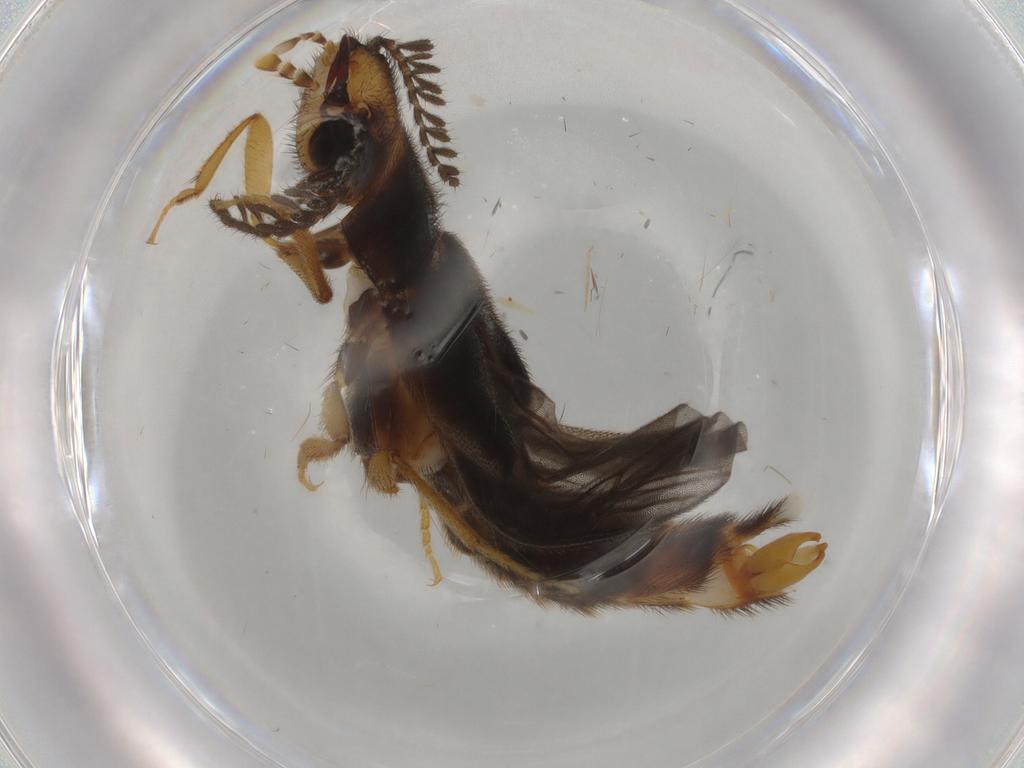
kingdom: Animalia
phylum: Arthropoda
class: Insecta
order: Coleoptera
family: Phengodidae
